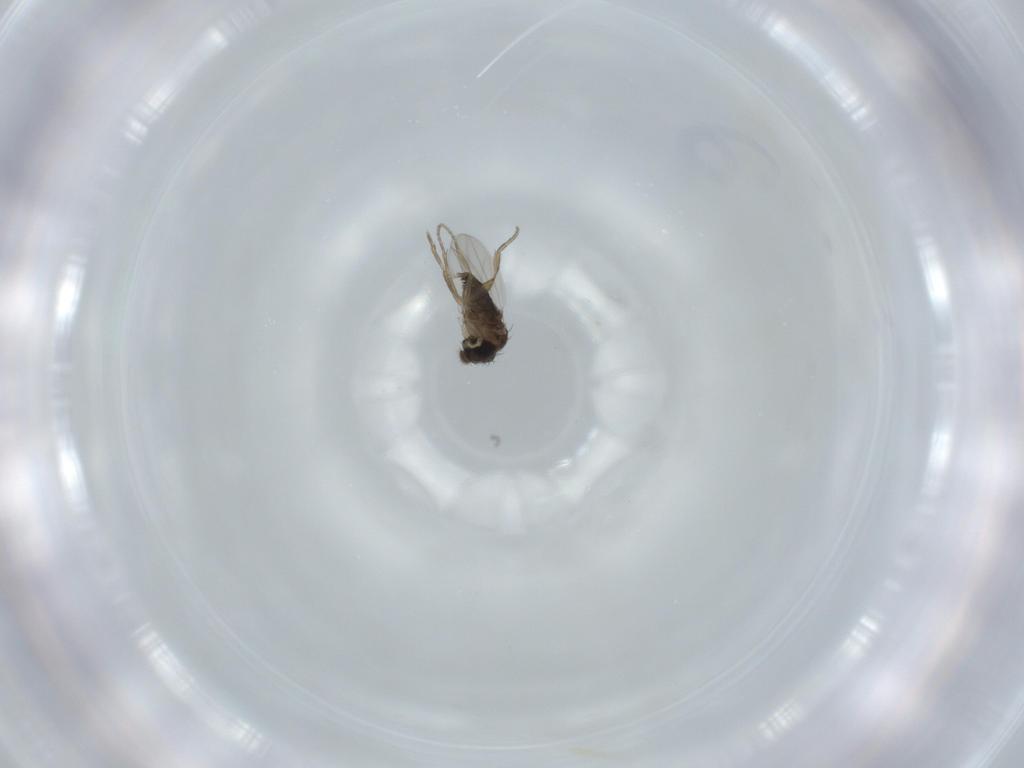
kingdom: Animalia
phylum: Arthropoda
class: Insecta
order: Diptera
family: Phoridae
